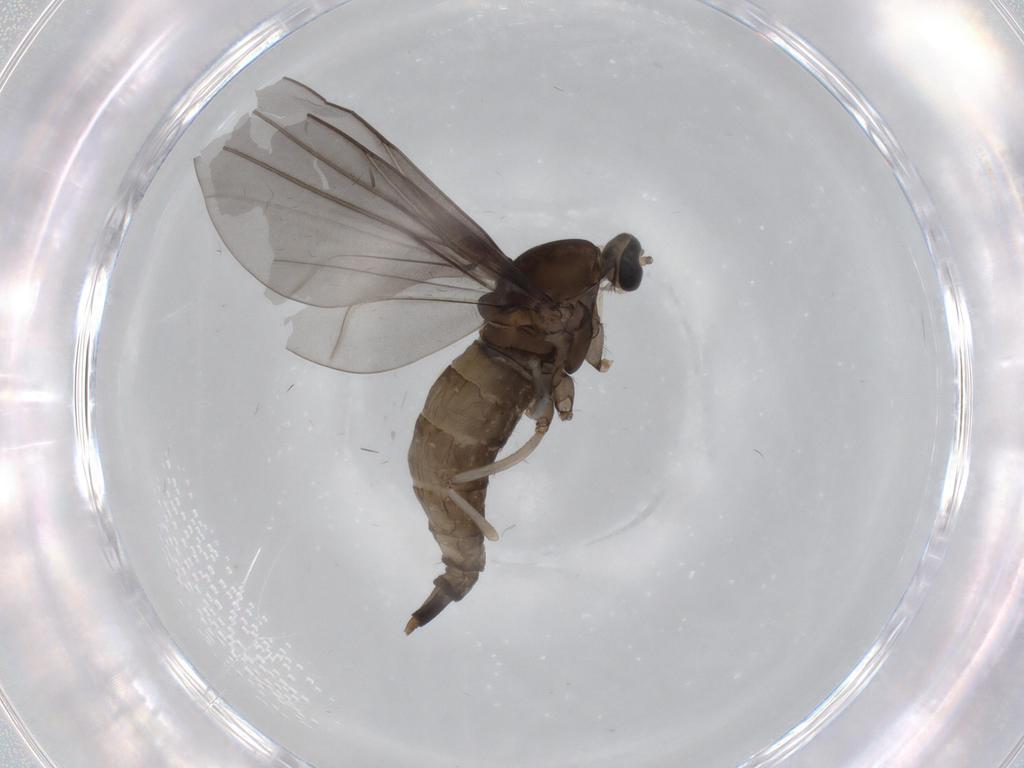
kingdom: Animalia
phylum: Arthropoda
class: Insecta
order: Diptera
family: Cecidomyiidae
